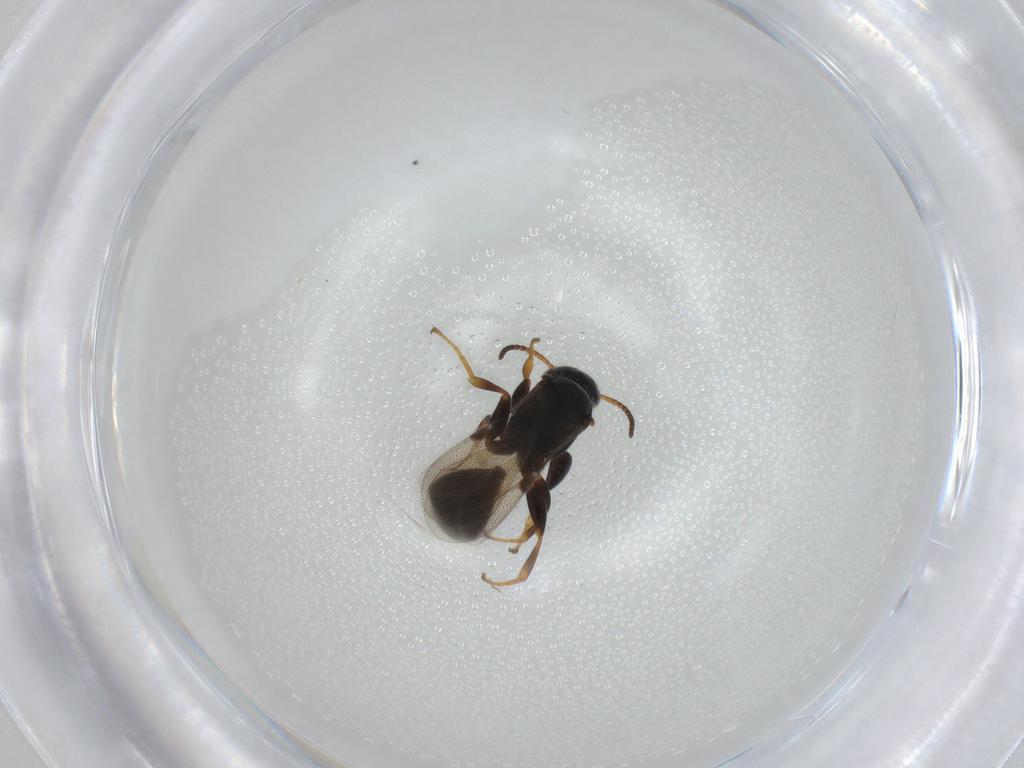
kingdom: Animalia
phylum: Arthropoda
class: Insecta
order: Hymenoptera
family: Bethylidae
